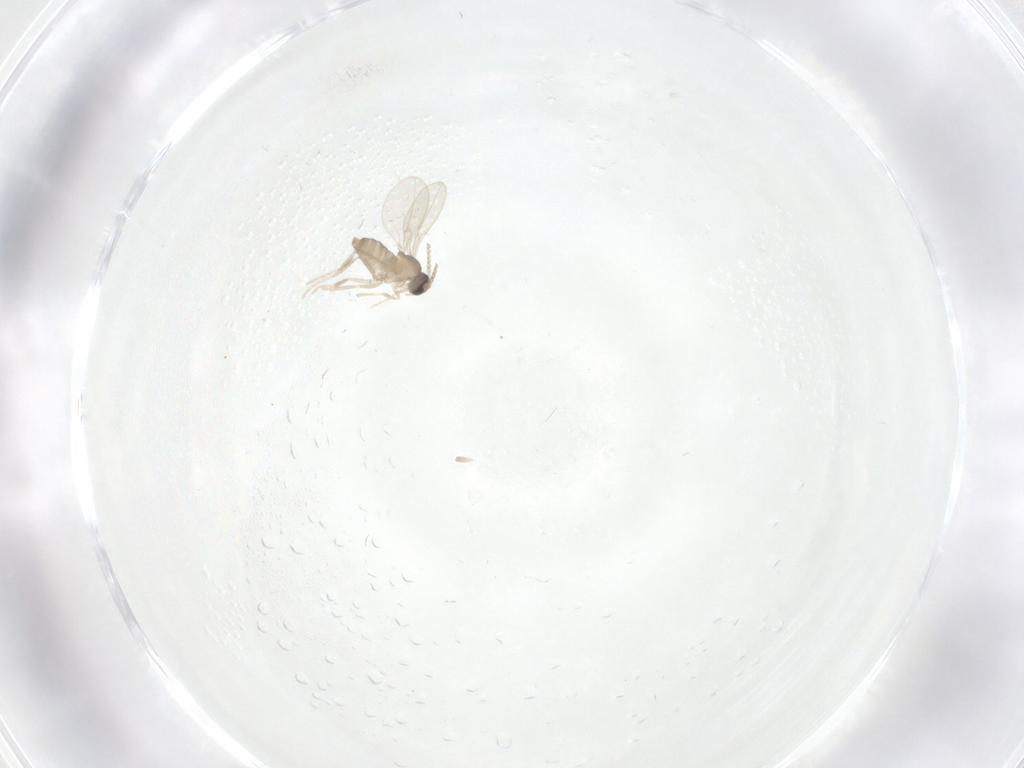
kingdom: Animalia
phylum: Arthropoda
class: Insecta
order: Diptera
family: Cecidomyiidae
